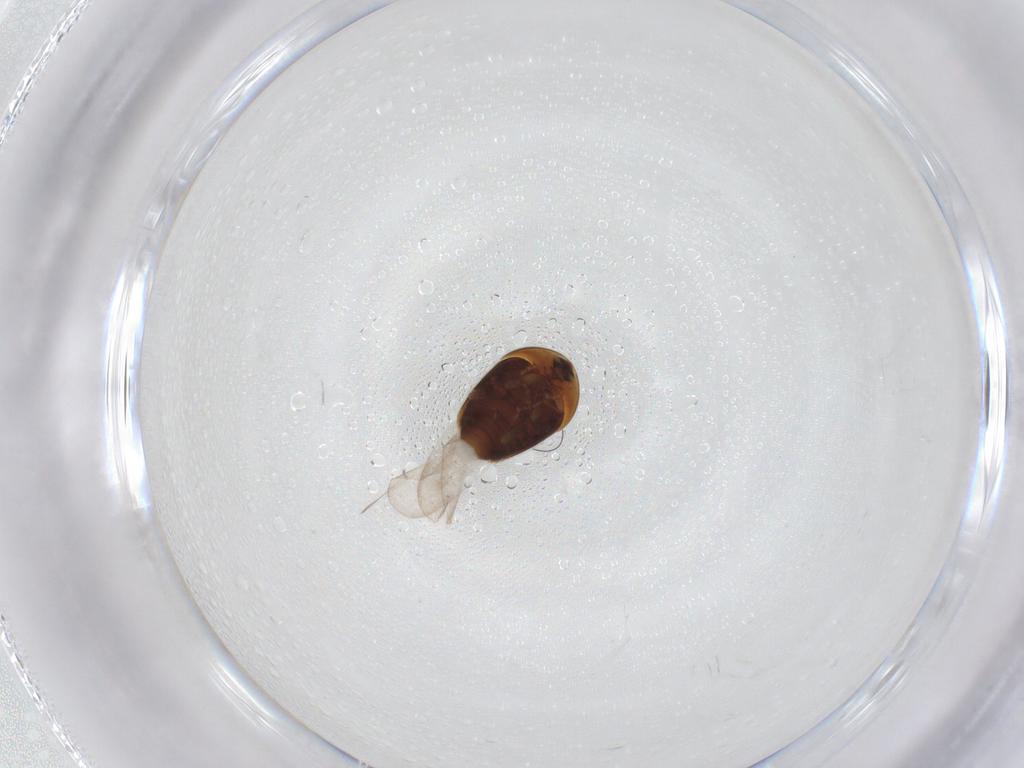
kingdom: Animalia
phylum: Arthropoda
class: Insecta
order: Coleoptera
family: Corylophidae
